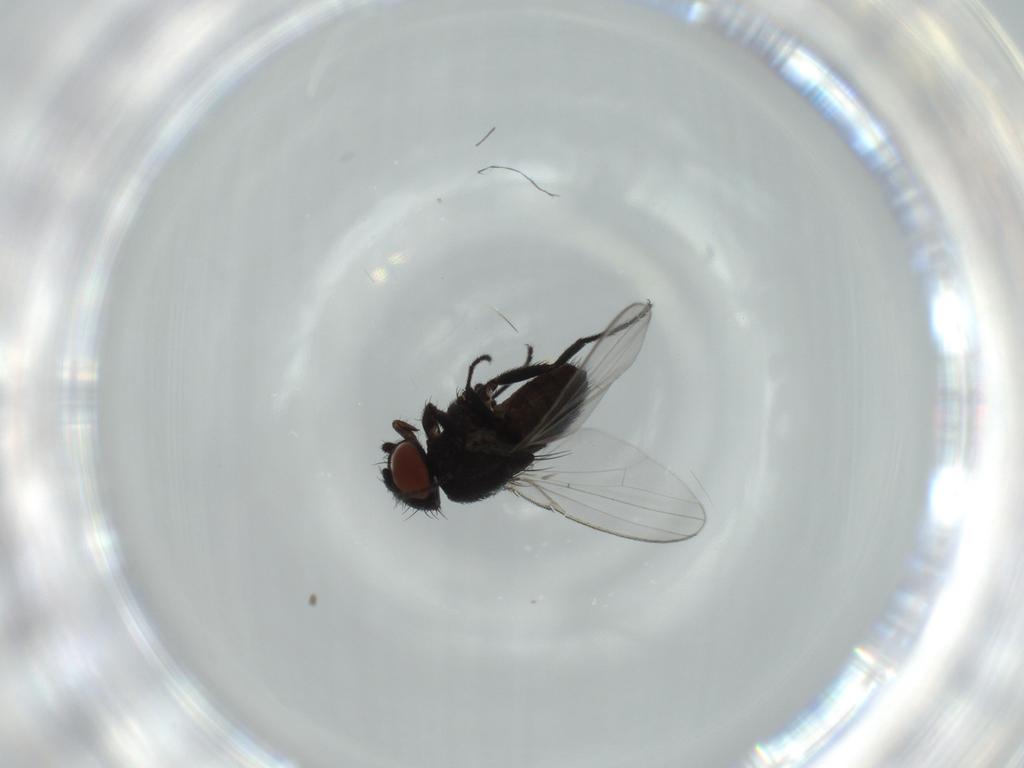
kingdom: Animalia
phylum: Arthropoda
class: Insecta
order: Diptera
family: Milichiidae
